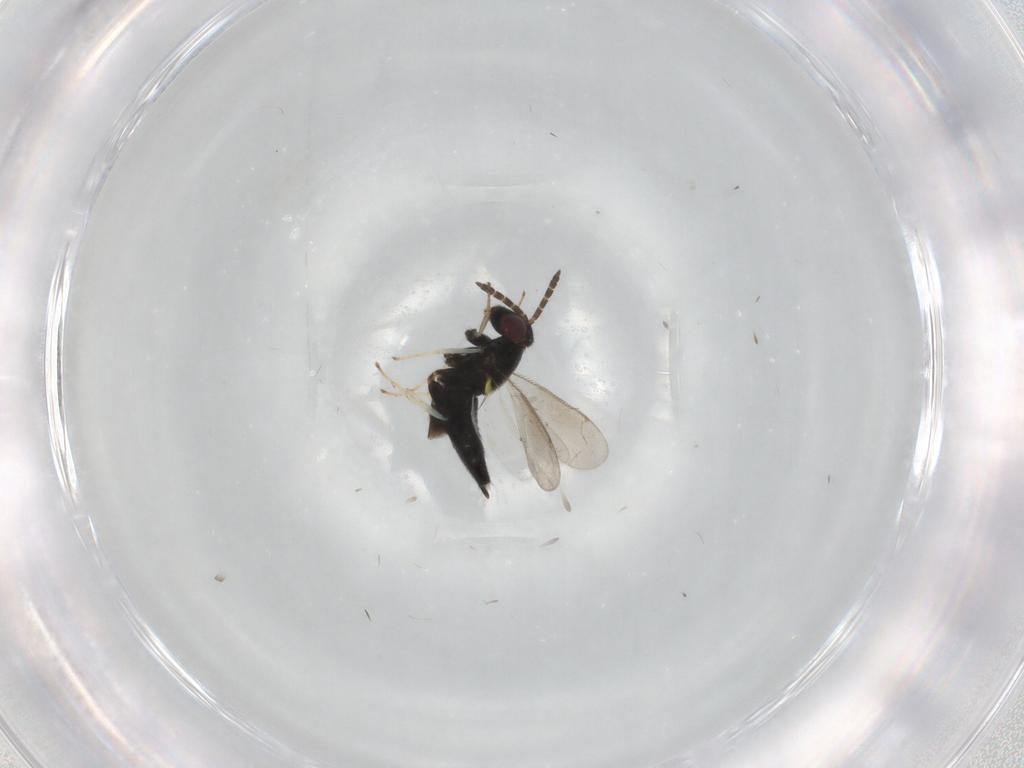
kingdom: Animalia
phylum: Arthropoda
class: Insecta
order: Hymenoptera
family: Aphelinidae
